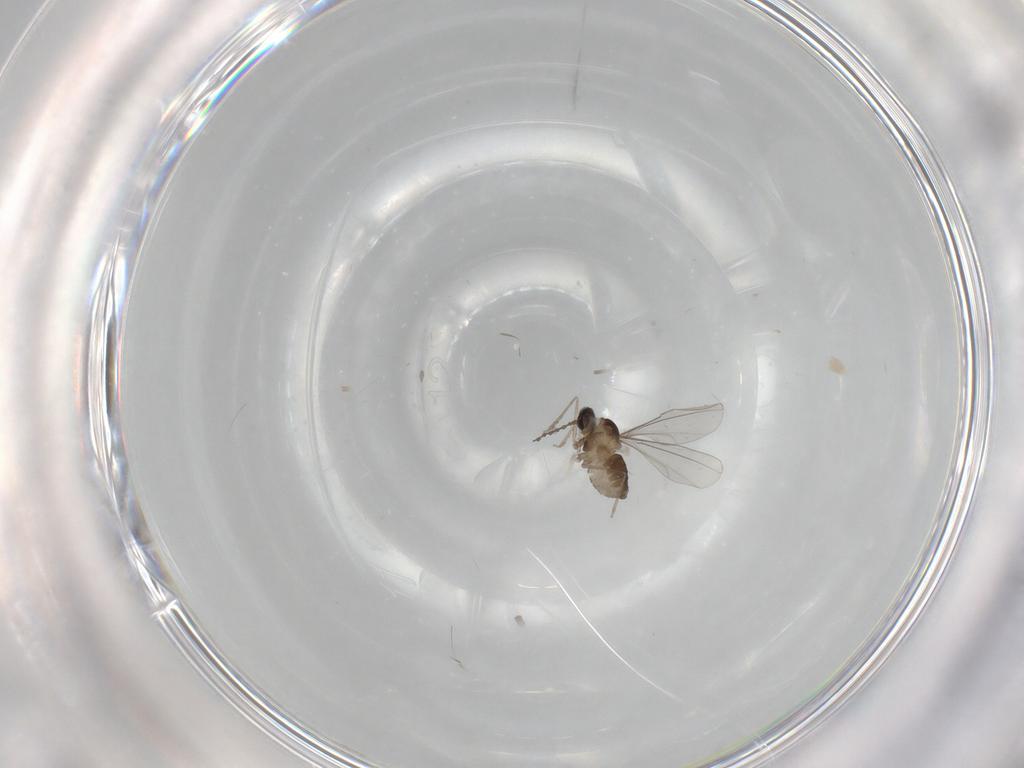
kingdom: Animalia
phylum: Arthropoda
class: Insecta
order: Diptera
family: Cecidomyiidae
